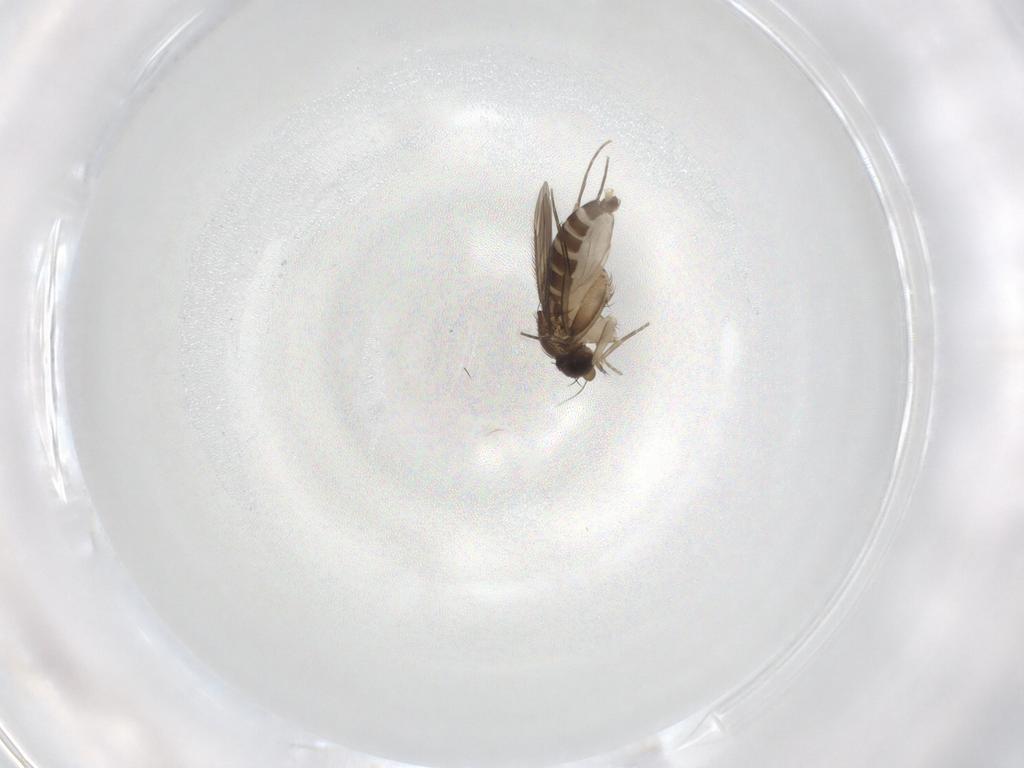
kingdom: Animalia
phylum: Arthropoda
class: Insecta
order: Diptera
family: Phoridae
